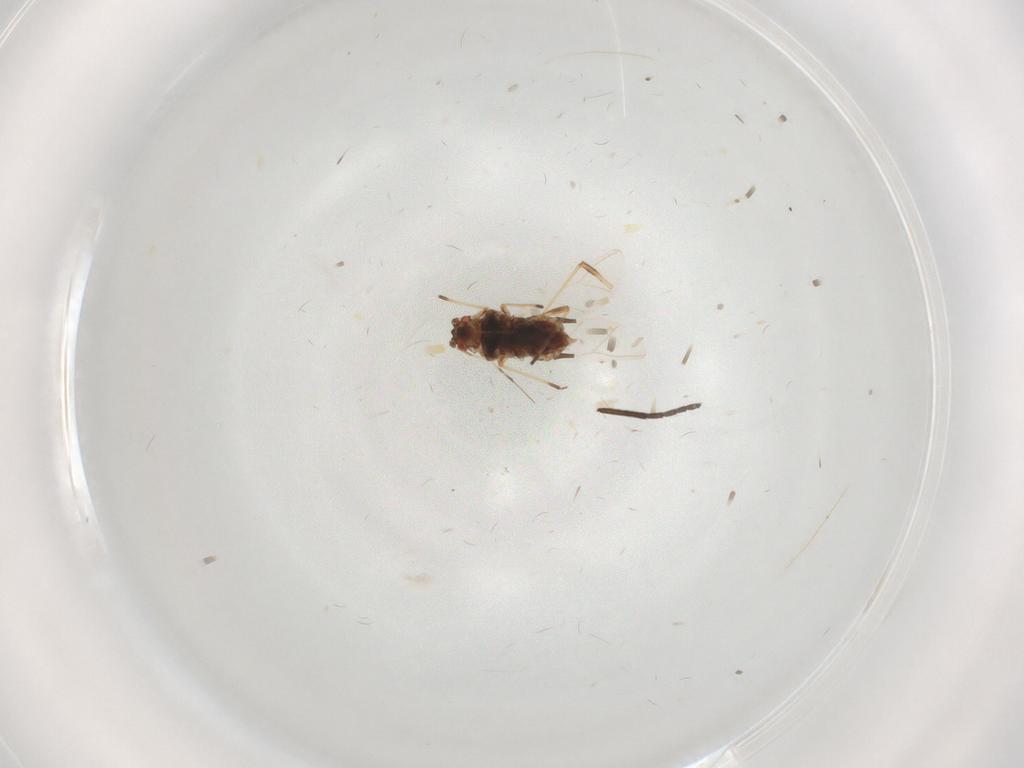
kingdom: Animalia
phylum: Arthropoda
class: Insecta
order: Hemiptera
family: Aphididae
